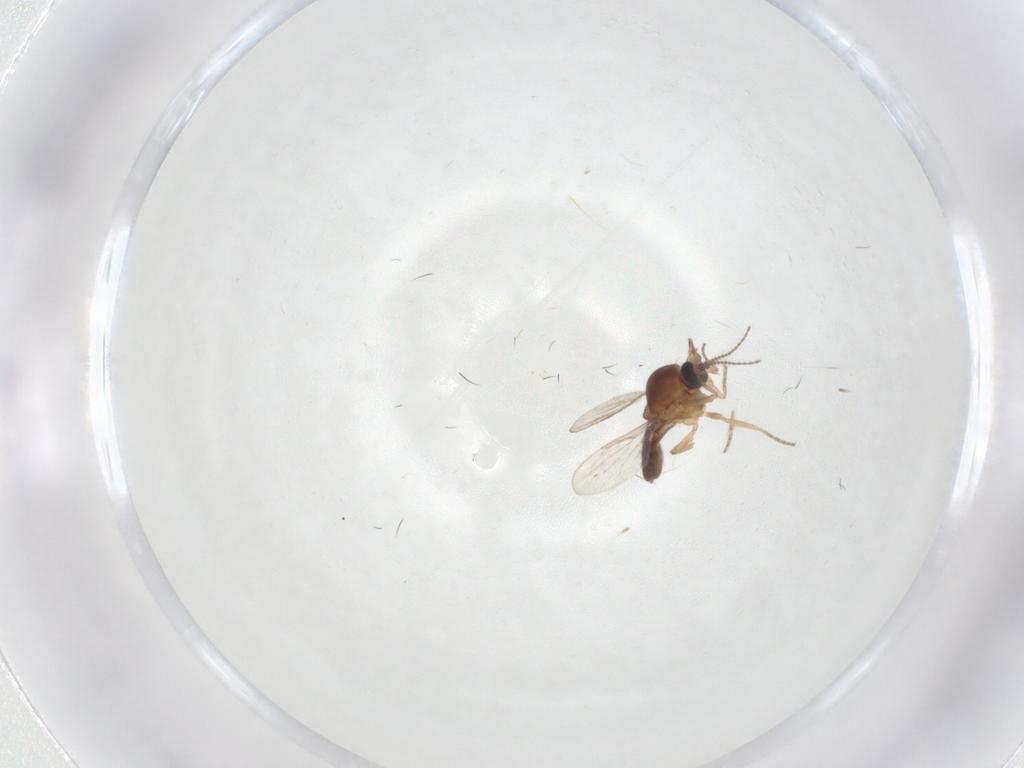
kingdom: Animalia
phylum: Arthropoda
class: Insecta
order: Diptera
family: Ceratopogonidae
